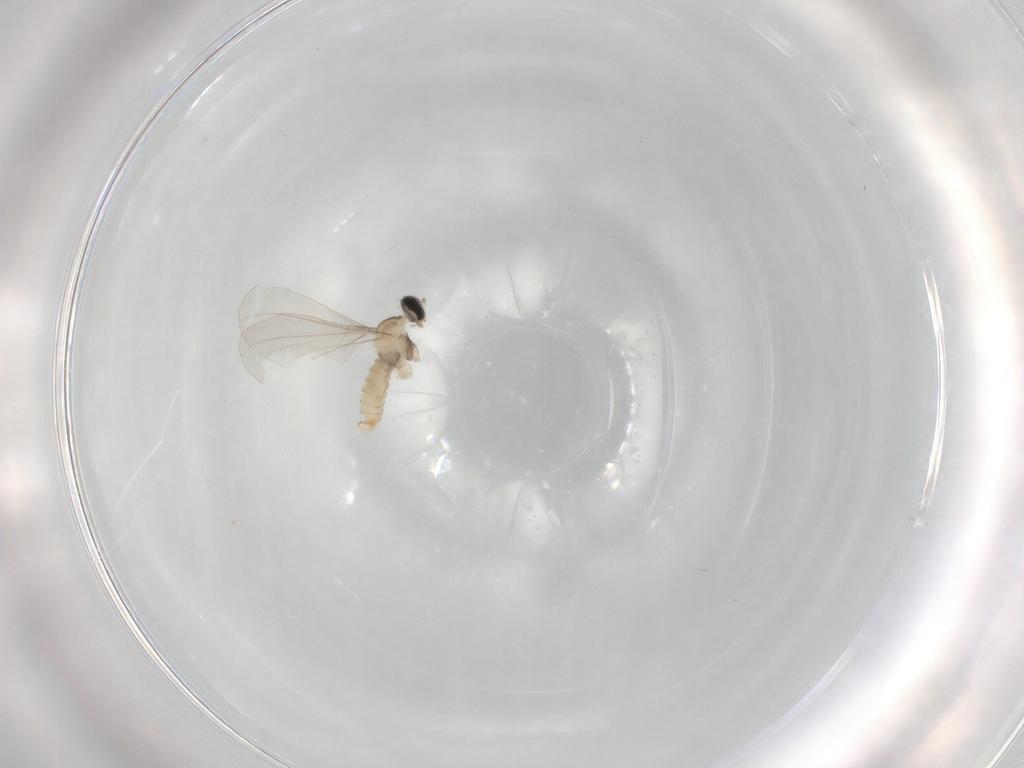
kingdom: Animalia
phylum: Arthropoda
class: Insecta
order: Diptera
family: Cecidomyiidae
